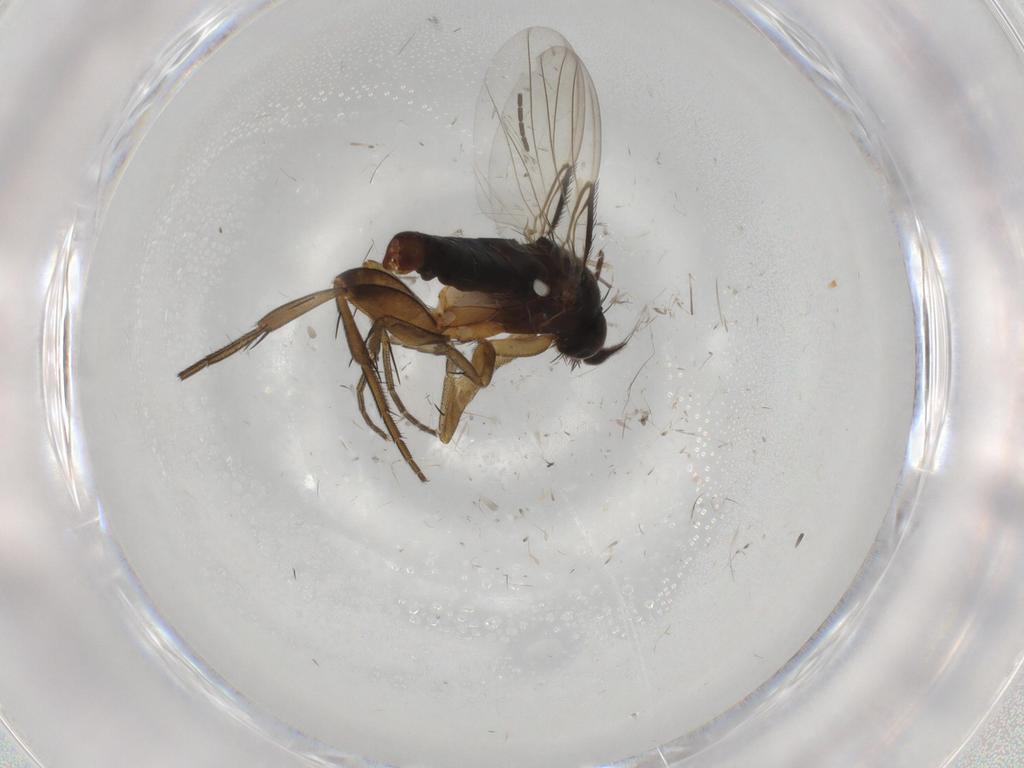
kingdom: Animalia
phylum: Arthropoda
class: Insecta
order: Diptera
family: Phoridae
